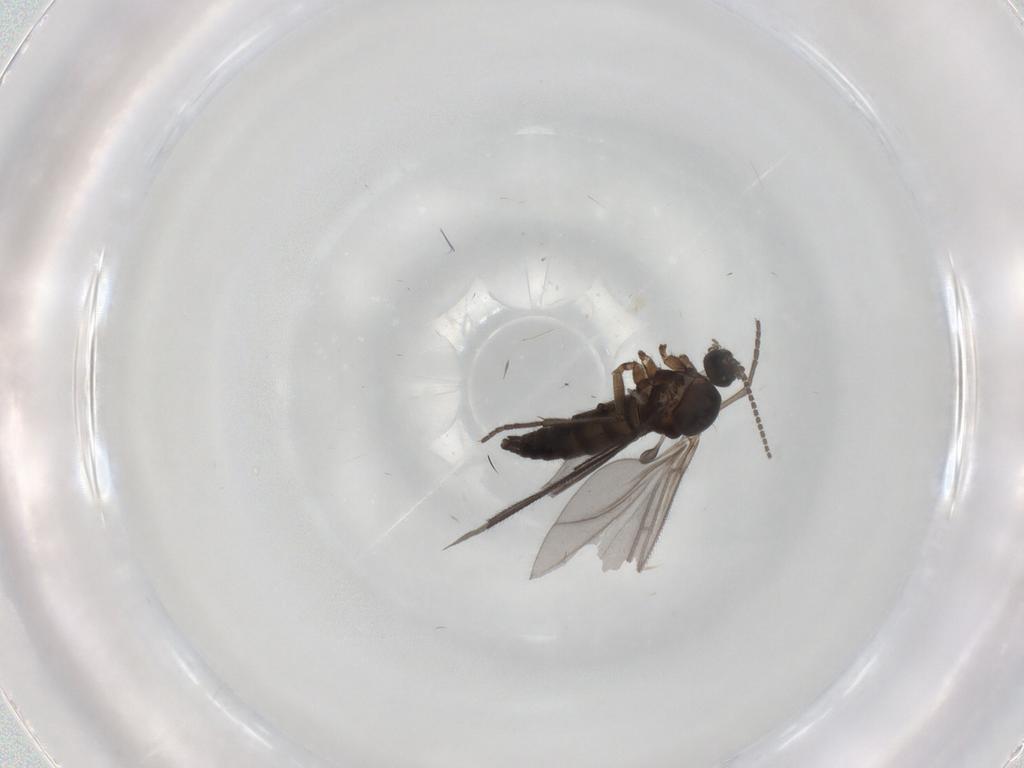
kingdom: Animalia
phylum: Arthropoda
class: Insecta
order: Diptera
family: Sciaridae
